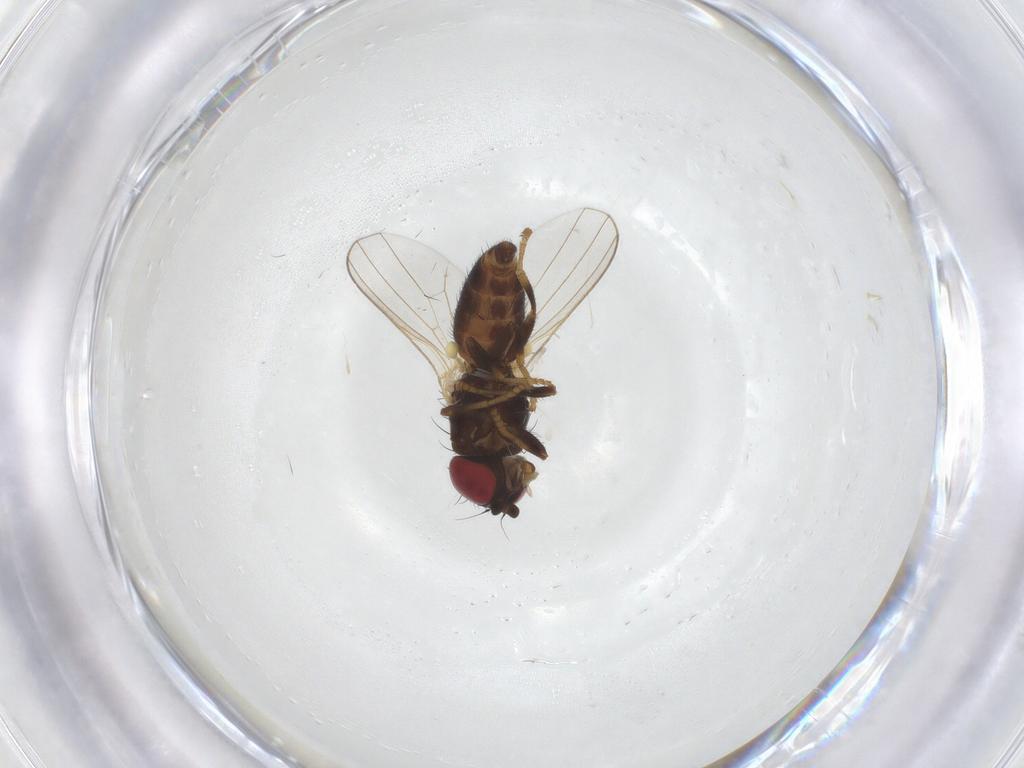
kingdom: Animalia
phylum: Arthropoda
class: Insecta
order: Diptera
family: Chamaemyiidae
